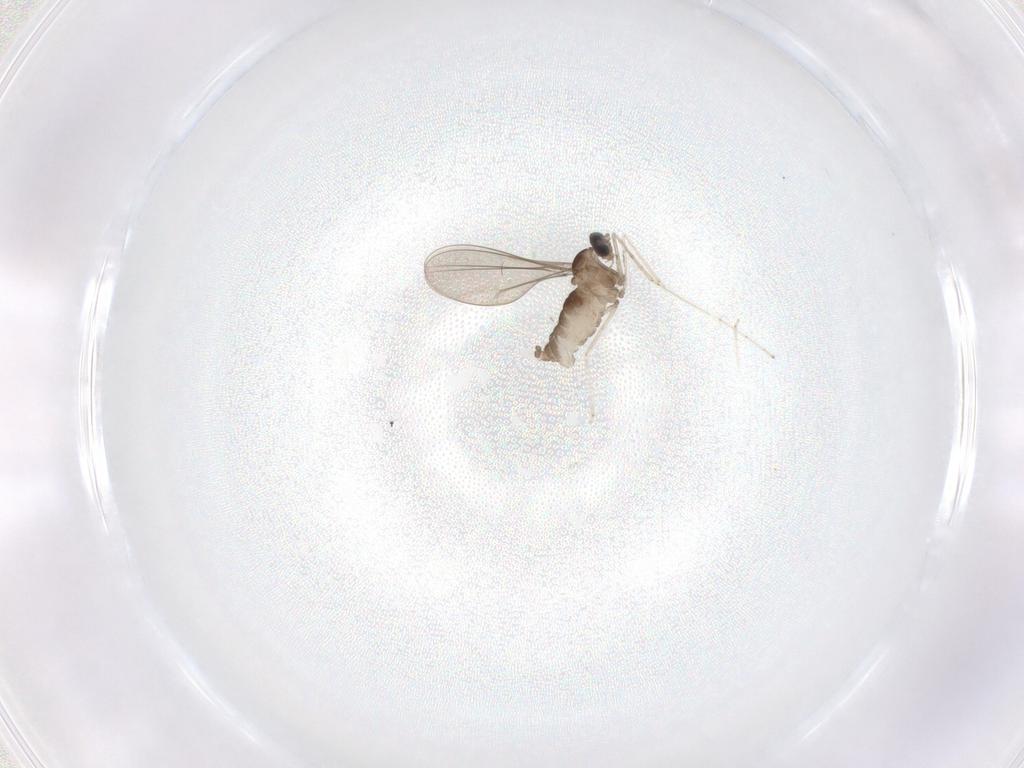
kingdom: Animalia
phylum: Arthropoda
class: Insecta
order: Diptera
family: Cecidomyiidae
